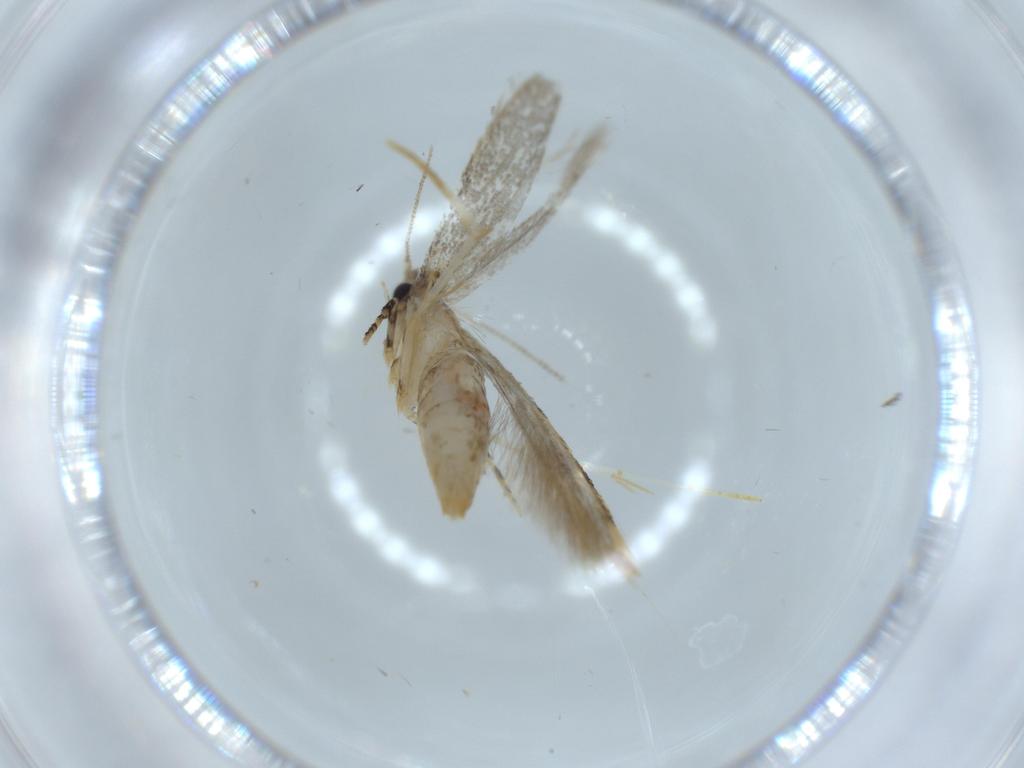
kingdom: Animalia
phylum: Arthropoda
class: Insecta
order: Lepidoptera
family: Tineidae
